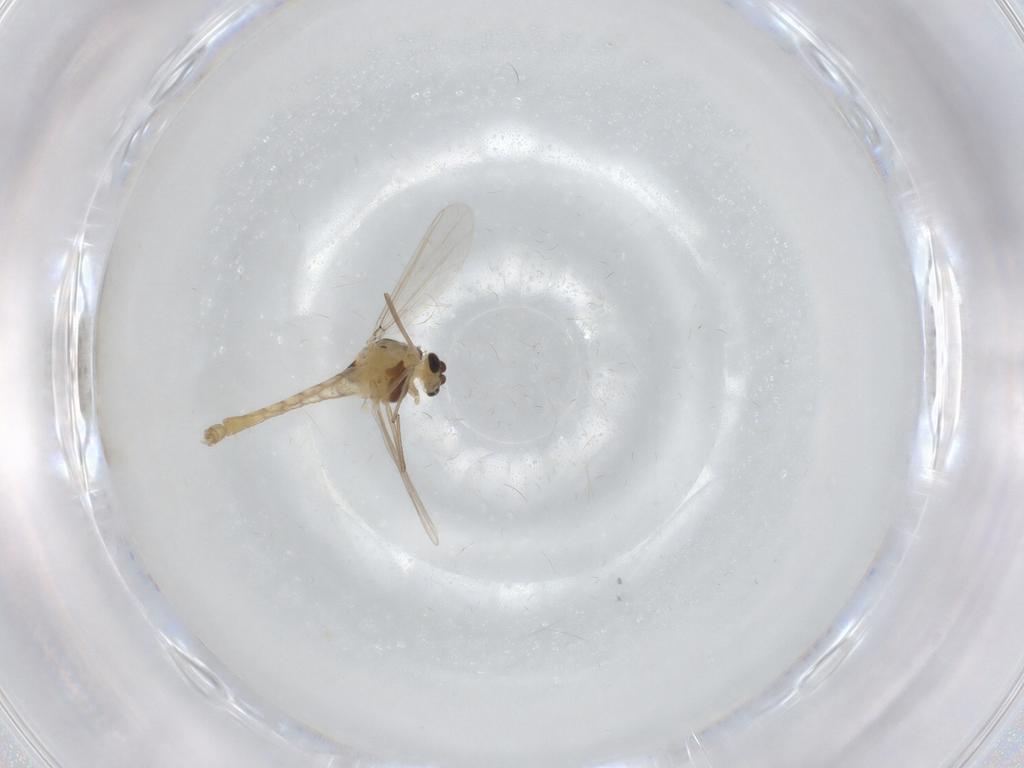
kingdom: Animalia
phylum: Arthropoda
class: Insecta
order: Diptera
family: Chironomidae
